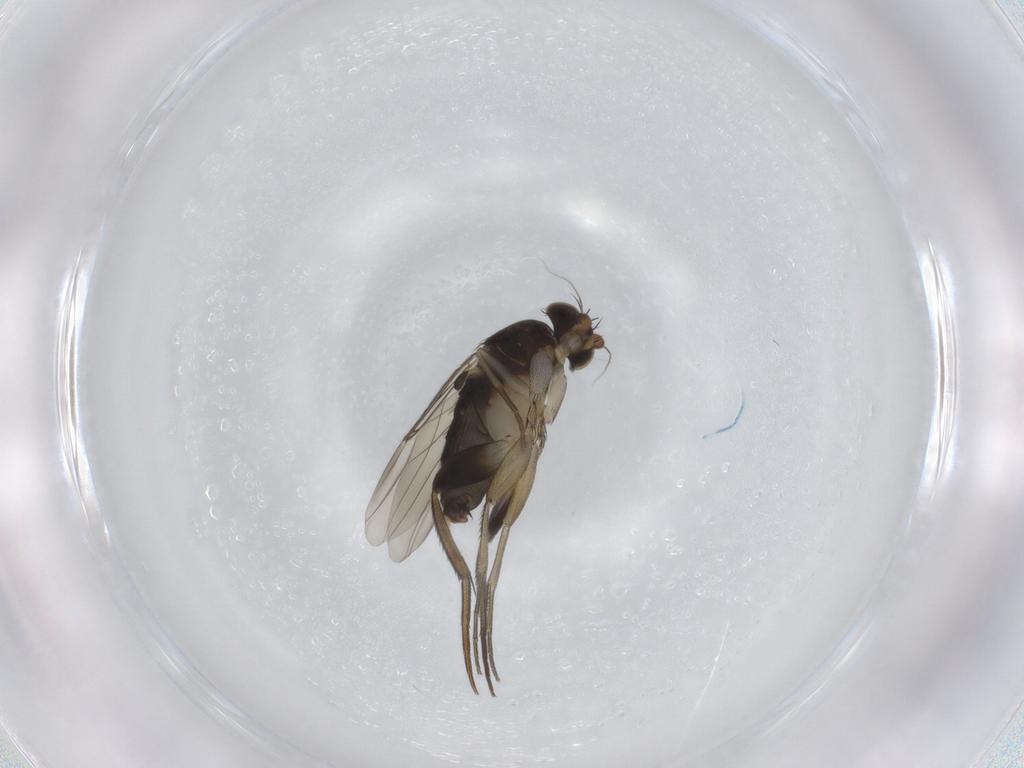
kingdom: Animalia
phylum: Arthropoda
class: Insecta
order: Diptera
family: Phoridae
